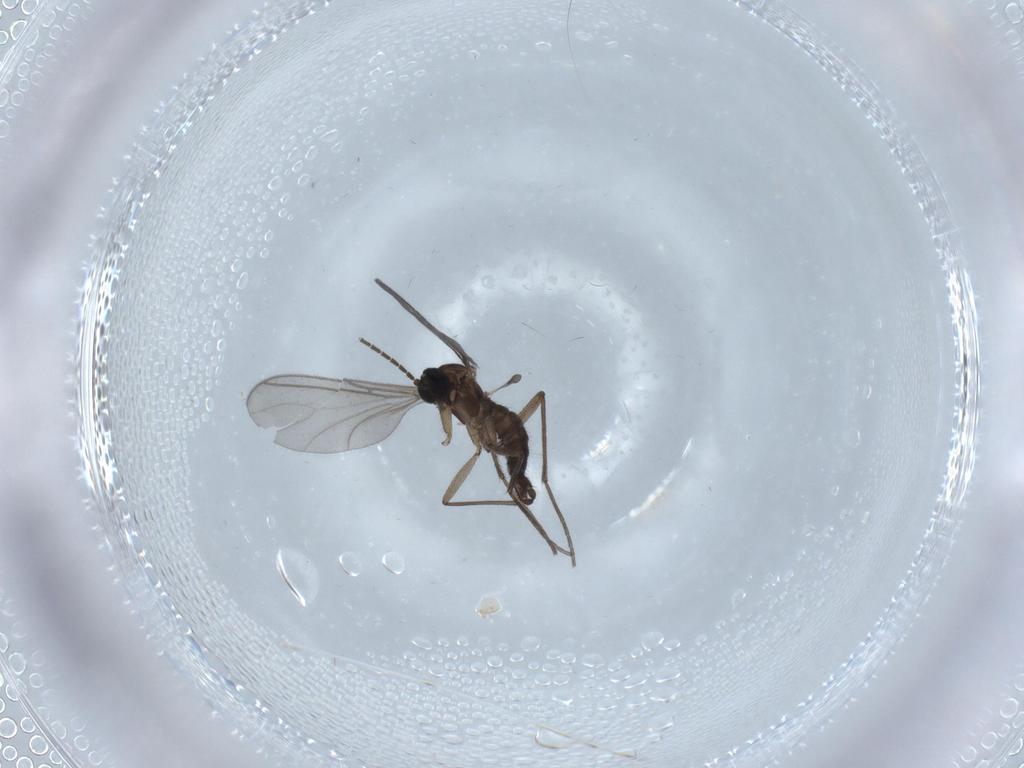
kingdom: Animalia
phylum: Arthropoda
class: Insecta
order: Diptera
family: Sciaridae
